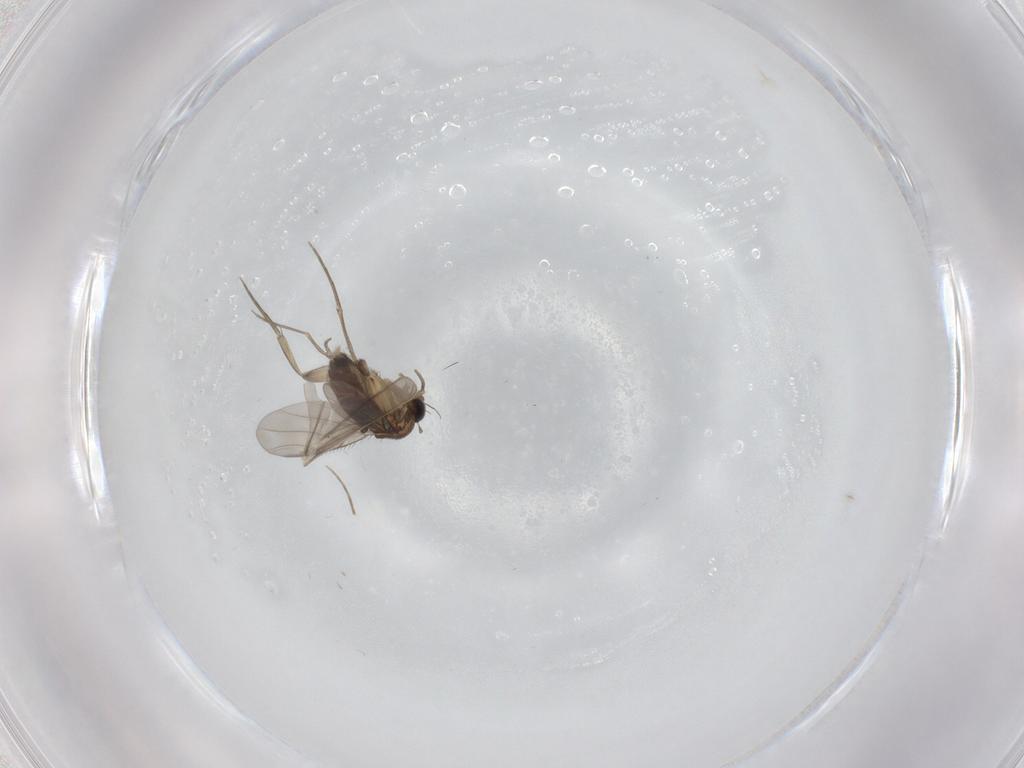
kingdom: Animalia
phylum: Arthropoda
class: Insecta
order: Diptera
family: Phoridae
